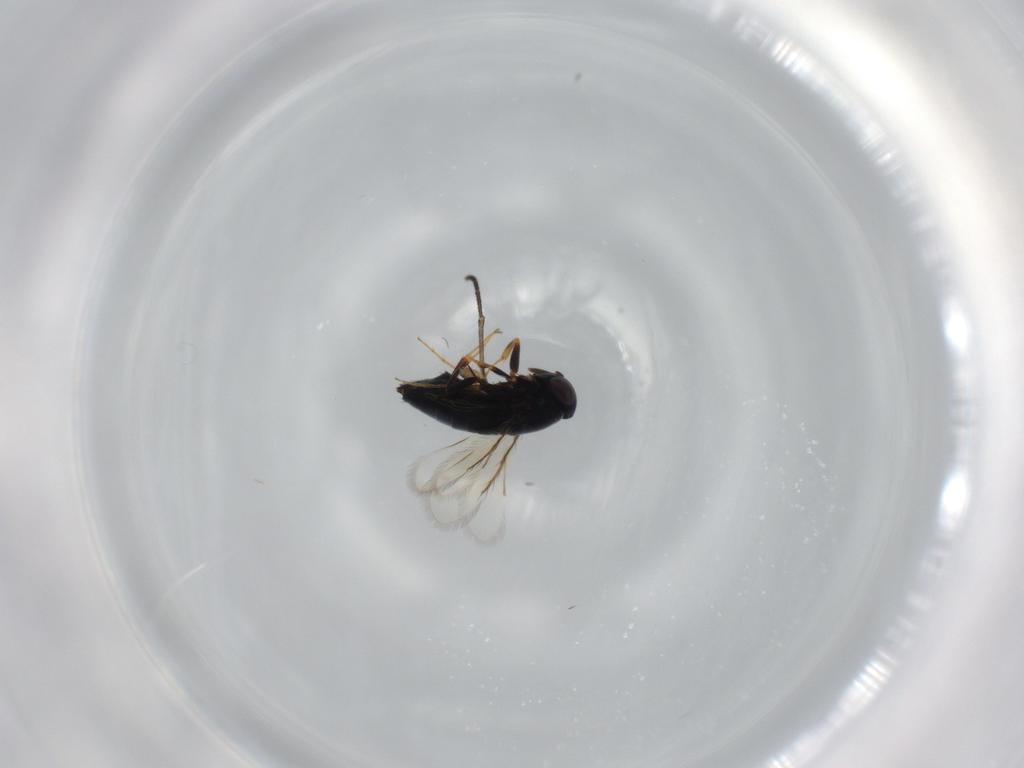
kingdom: Animalia
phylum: Arthropoda
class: Insecta
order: Hymenoptera
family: Signiphoridae
